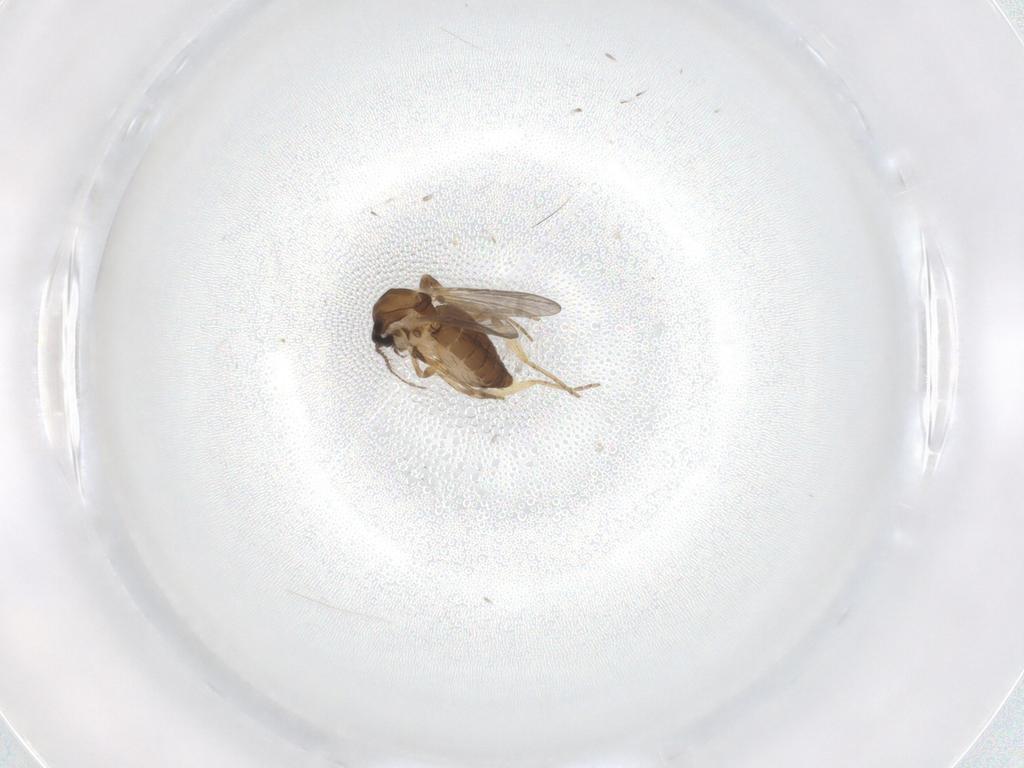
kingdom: Animalia
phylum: Arthropoda
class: Insecta
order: Diptera
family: Ceratopogonidae
